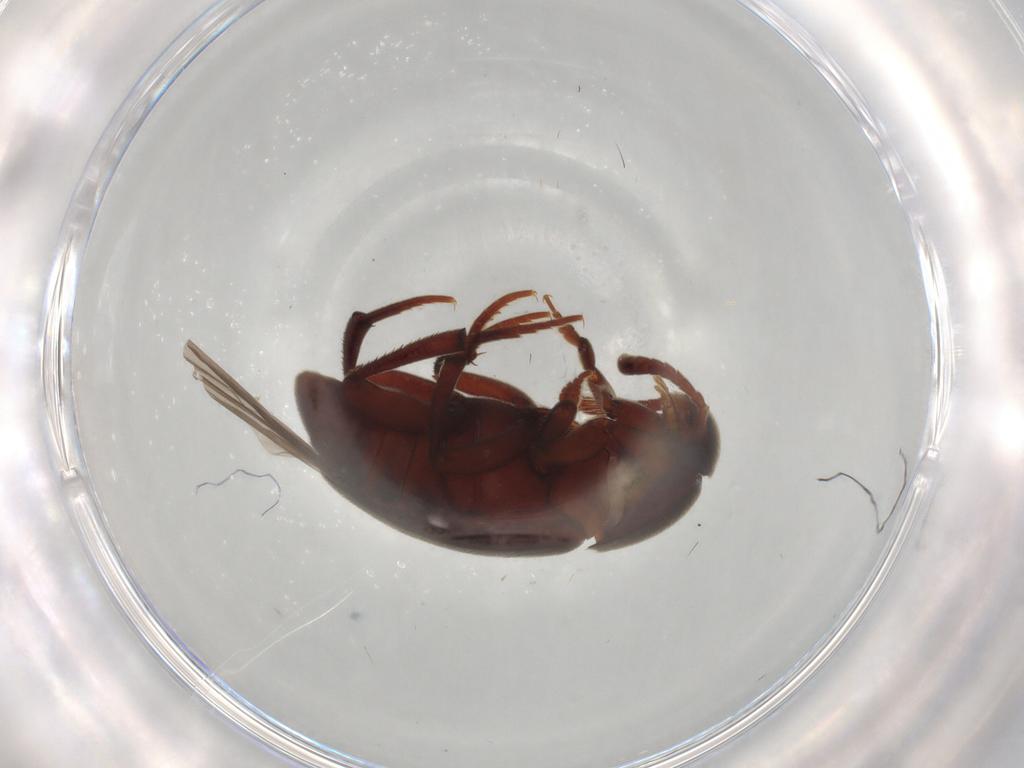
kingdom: Animalia
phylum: Arthropoda
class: Insecta
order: Coleoptera
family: Leiodidae
